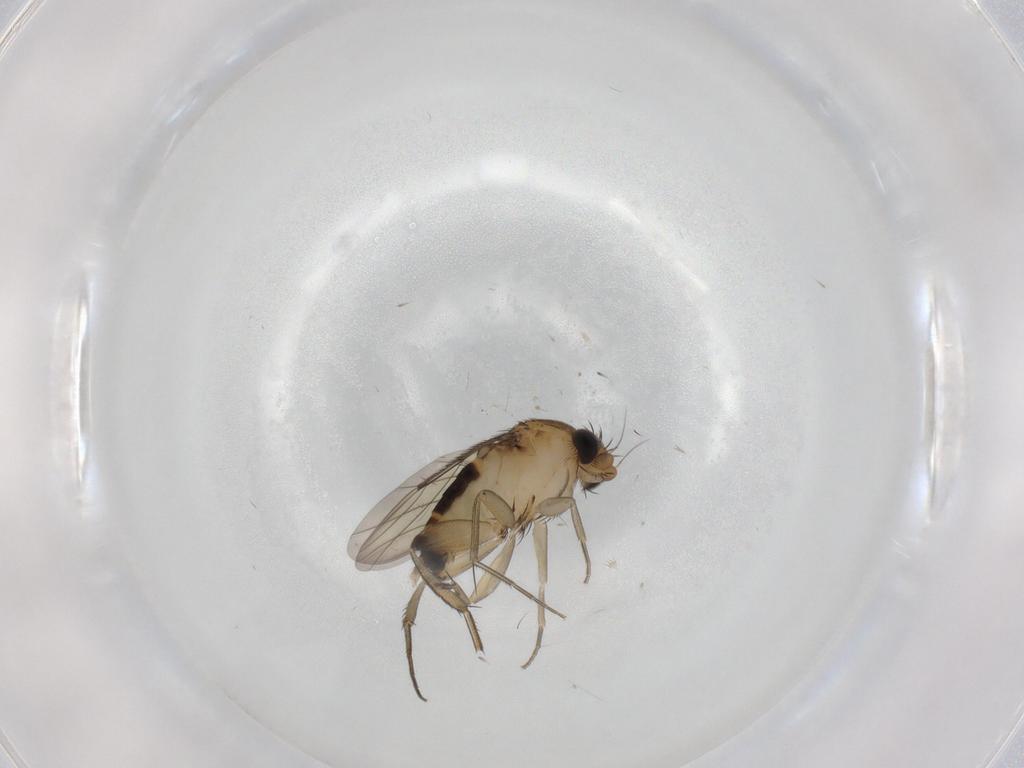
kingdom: Animalia
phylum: Arthropoda
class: Insecta
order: Diptera
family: Phoridae
